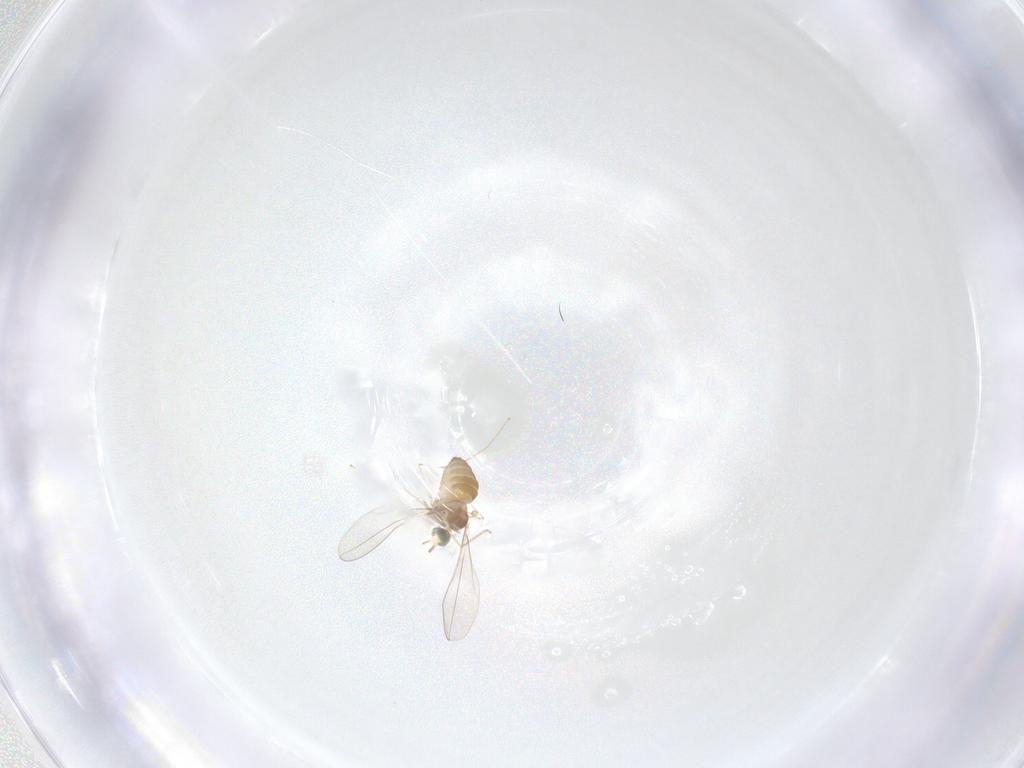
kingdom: Animalia
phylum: Arthropoda
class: Insecta
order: Diptera
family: Cecidomyiidae
